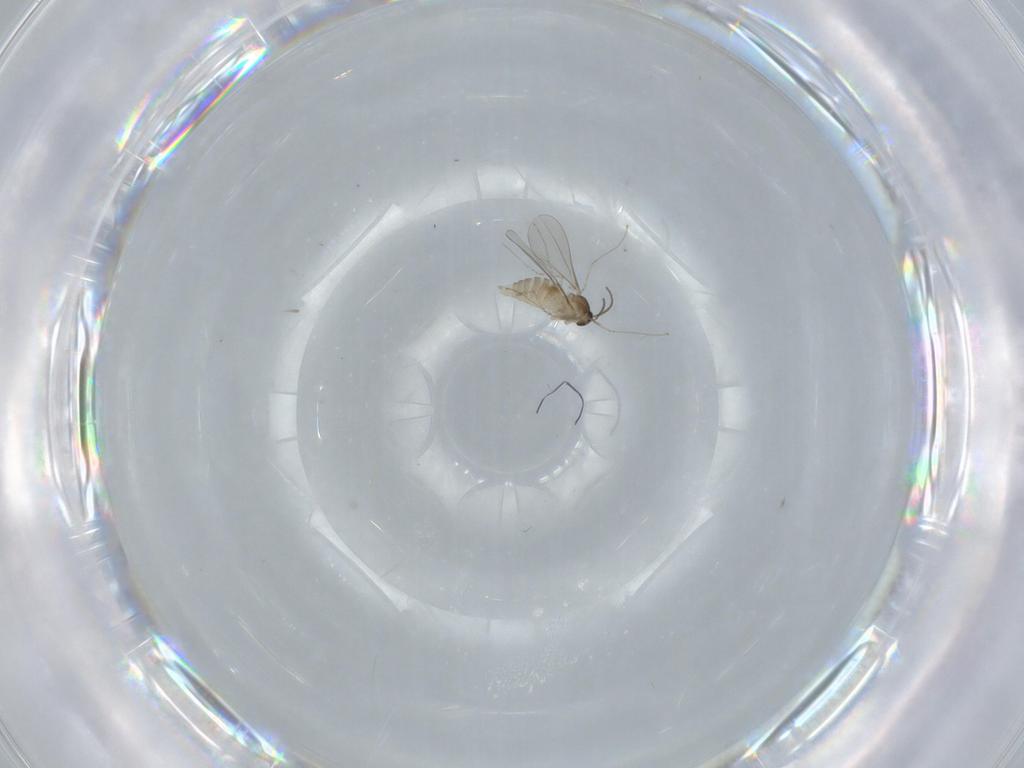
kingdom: Animalia
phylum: Arthropoda
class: Insecta
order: Diptera
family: Cecidomyiidae
